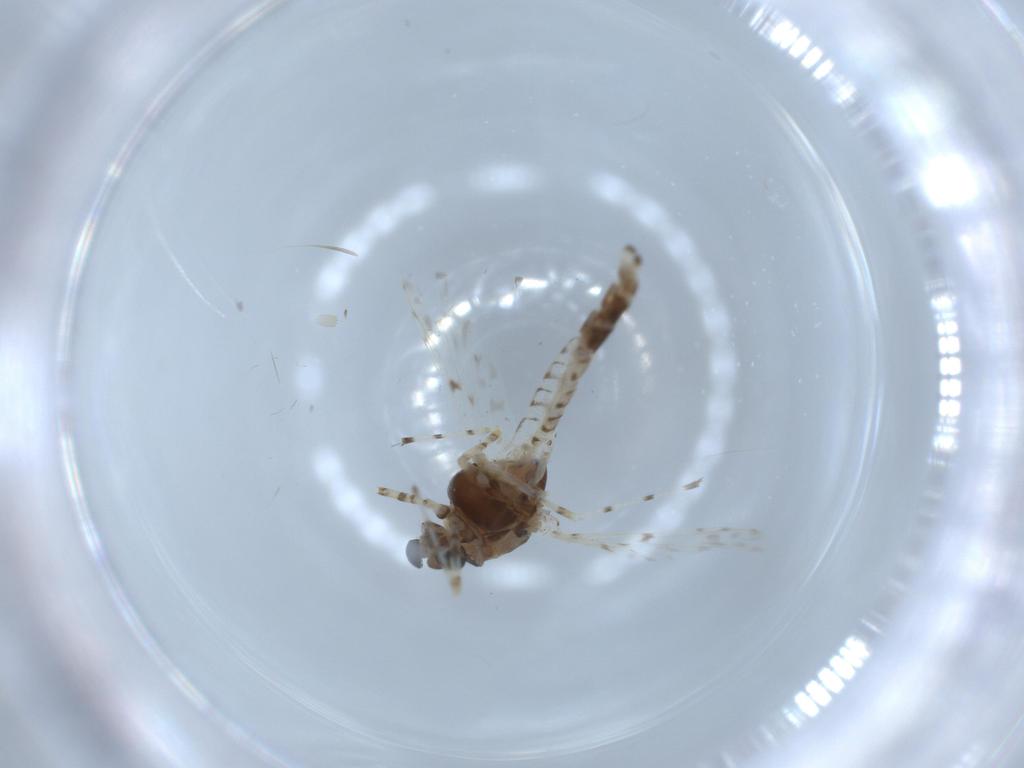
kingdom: Animalia
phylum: Arthropoda
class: Insecta
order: Diptera
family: Chironomidae
